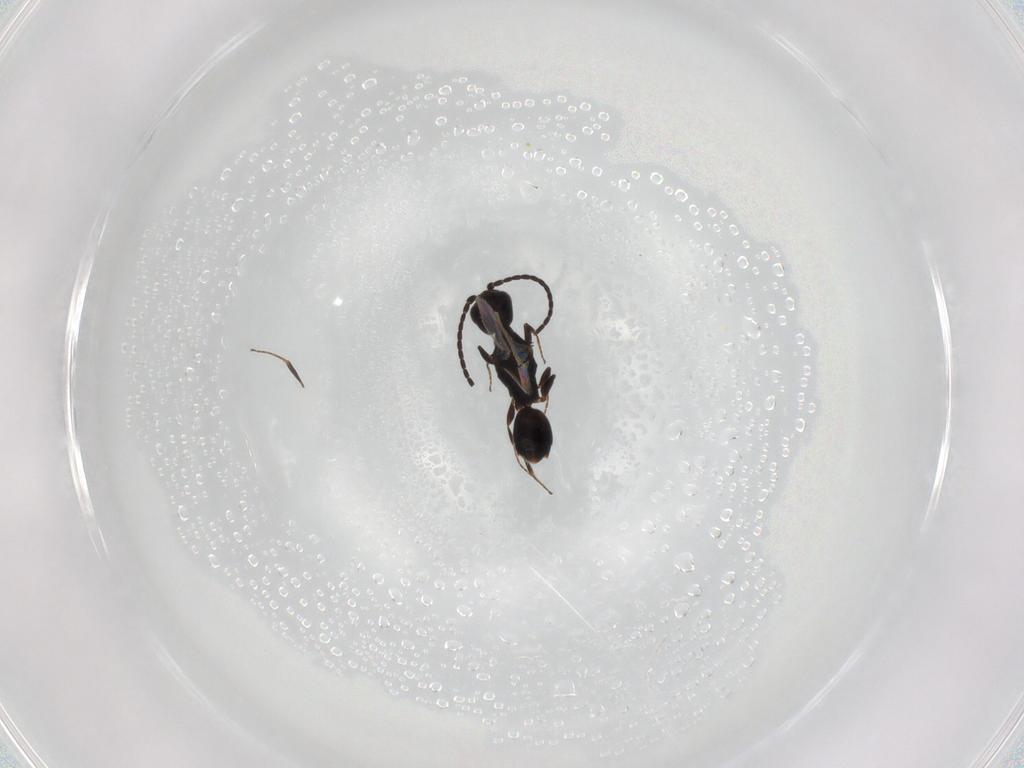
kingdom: Animalia
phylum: Arthropoda
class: Insecta
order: Hymenoptera
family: Bethylidae
